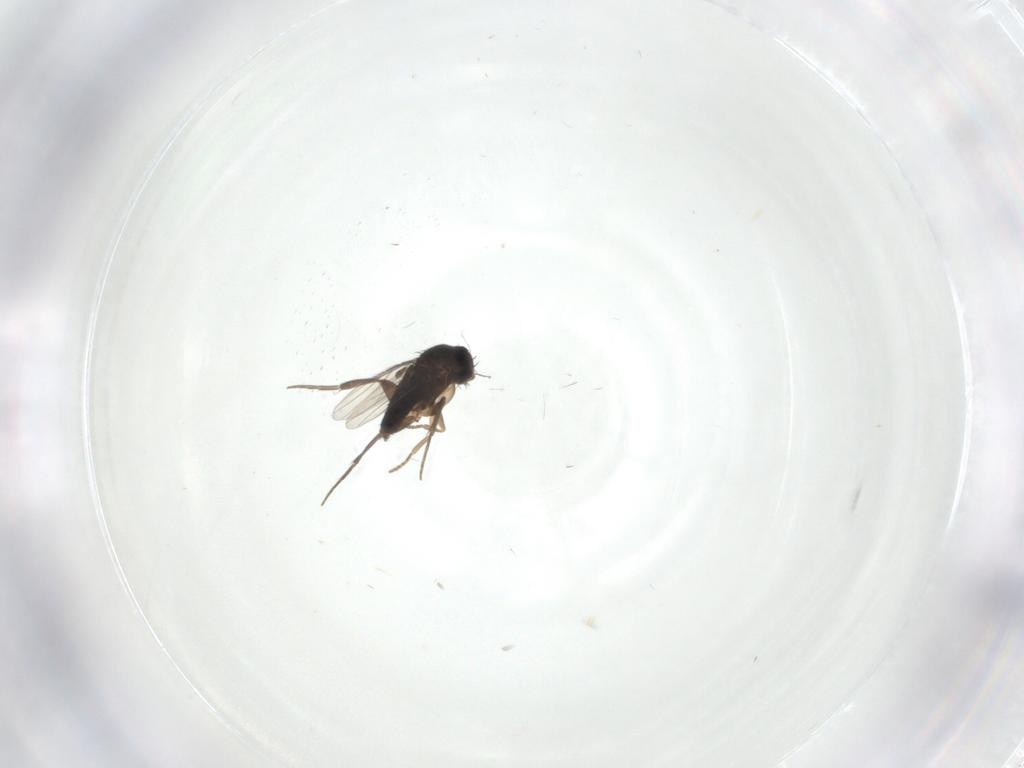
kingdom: Animalia
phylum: Arthropoda
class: Insecta
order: Diptera
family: Phoridae
